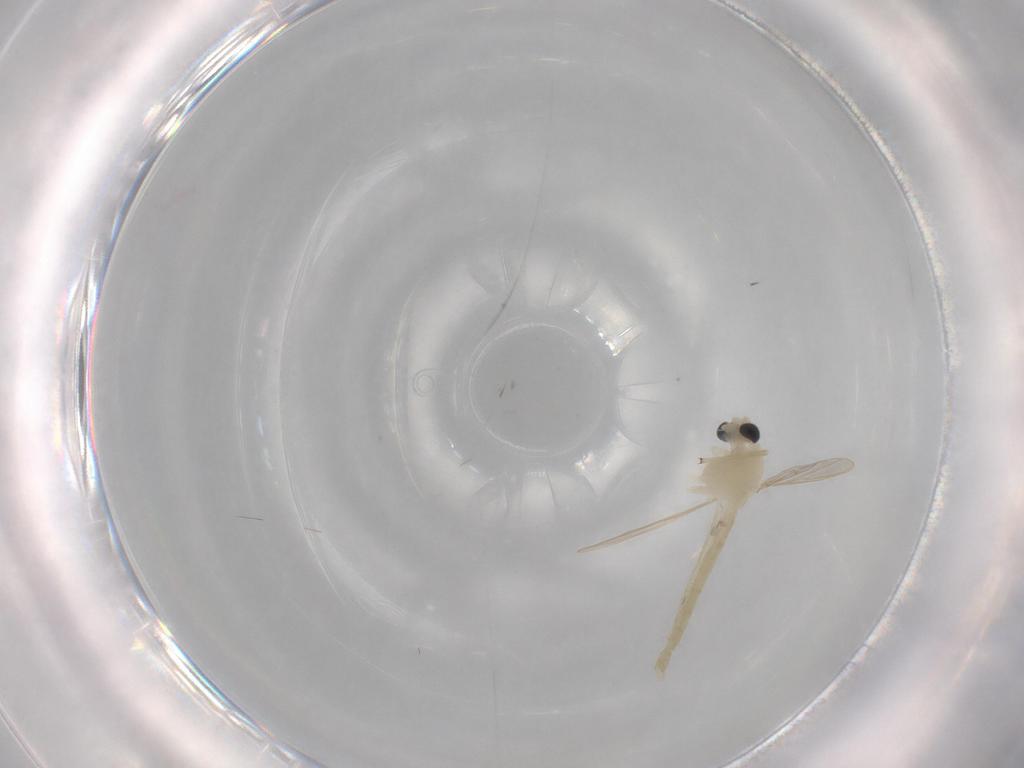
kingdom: Animalia
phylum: Arthropoda
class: Insecta
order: Diptera
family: Chironomidae
